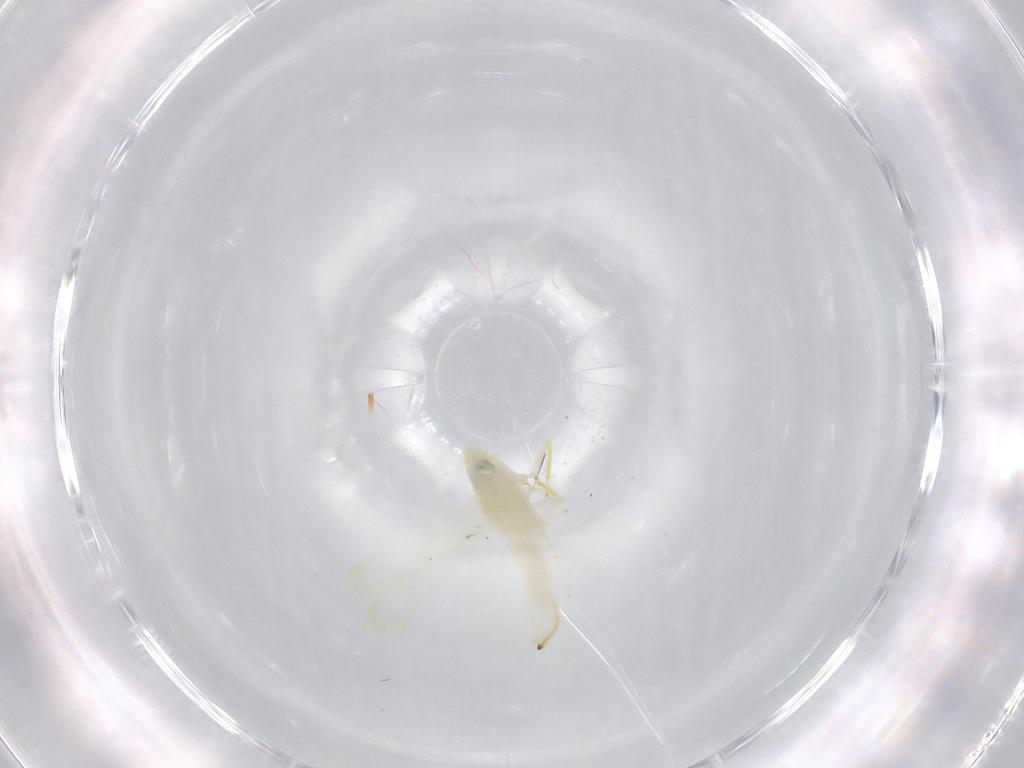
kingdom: Animalia
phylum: Arthropoda
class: Insecta
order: Hemiptera
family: Cicadellidae
